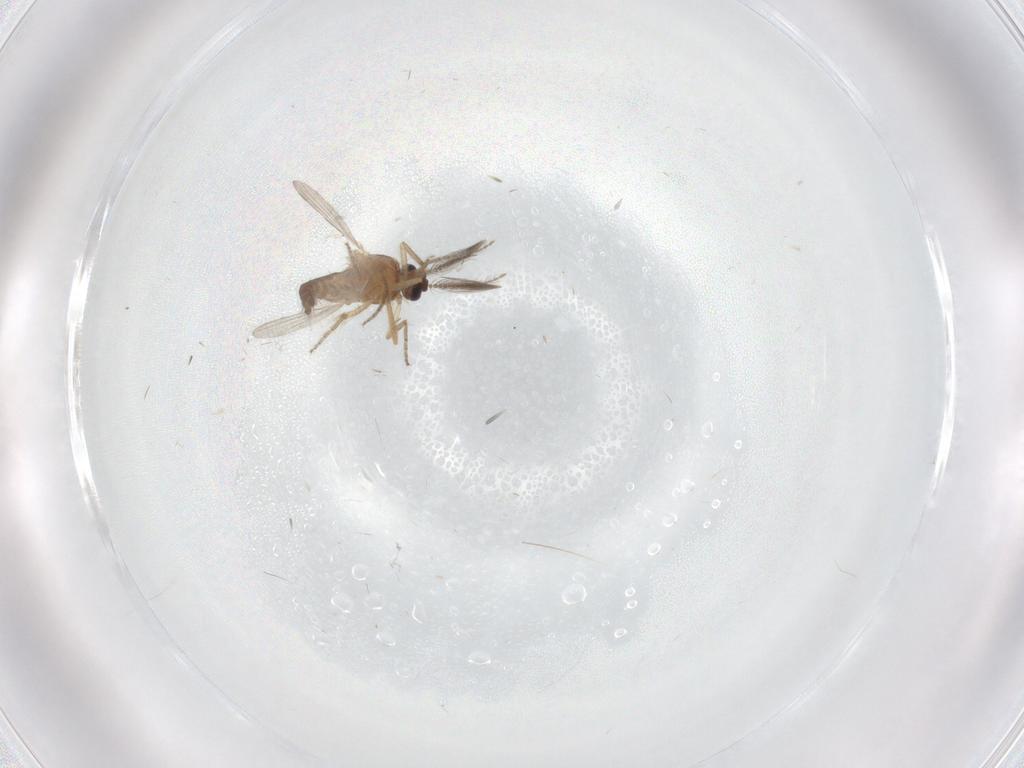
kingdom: Animalia
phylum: Arthropoda
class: Insecta
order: Diptera
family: Ceratopogonidae
